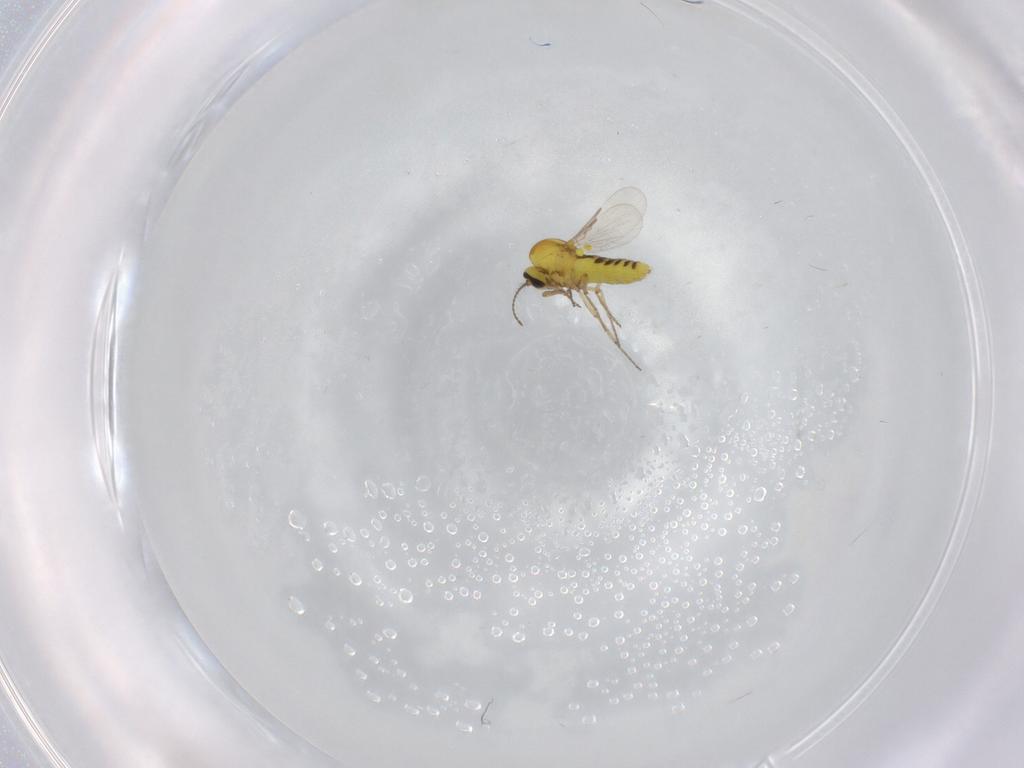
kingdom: Animalia
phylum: Arthropoda
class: Insecta
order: Diptera
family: Ceratopogonidae
